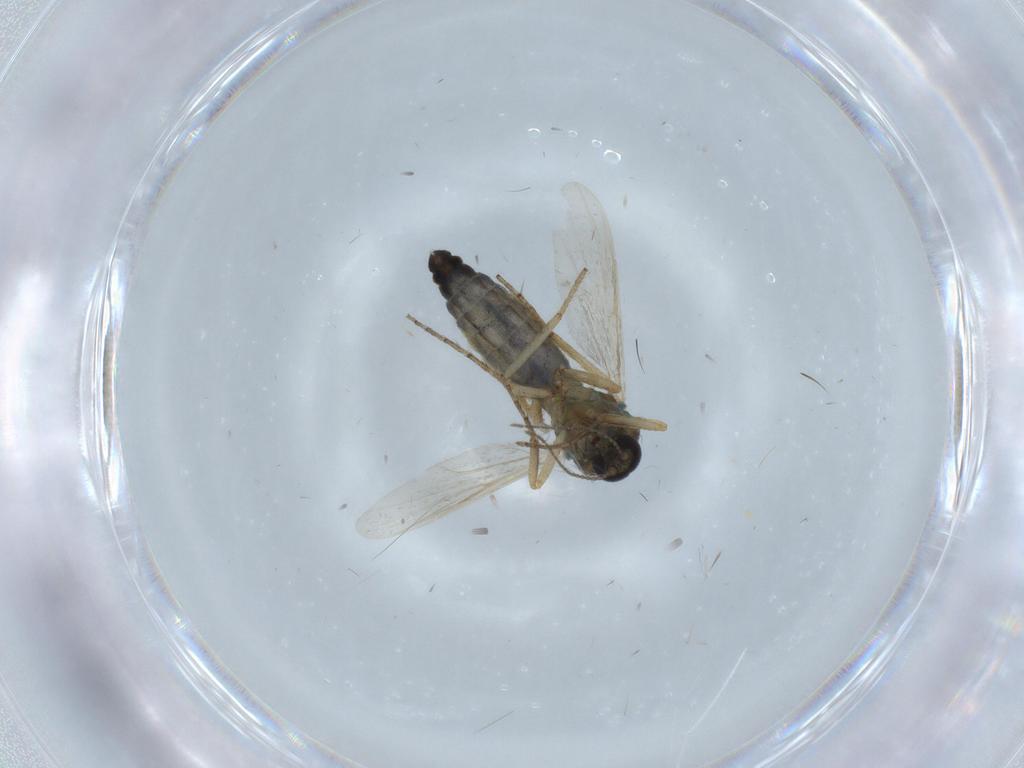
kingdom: Animalia
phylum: Arthropoda
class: Insecta
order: Diptera
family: Ceratopogonidae
